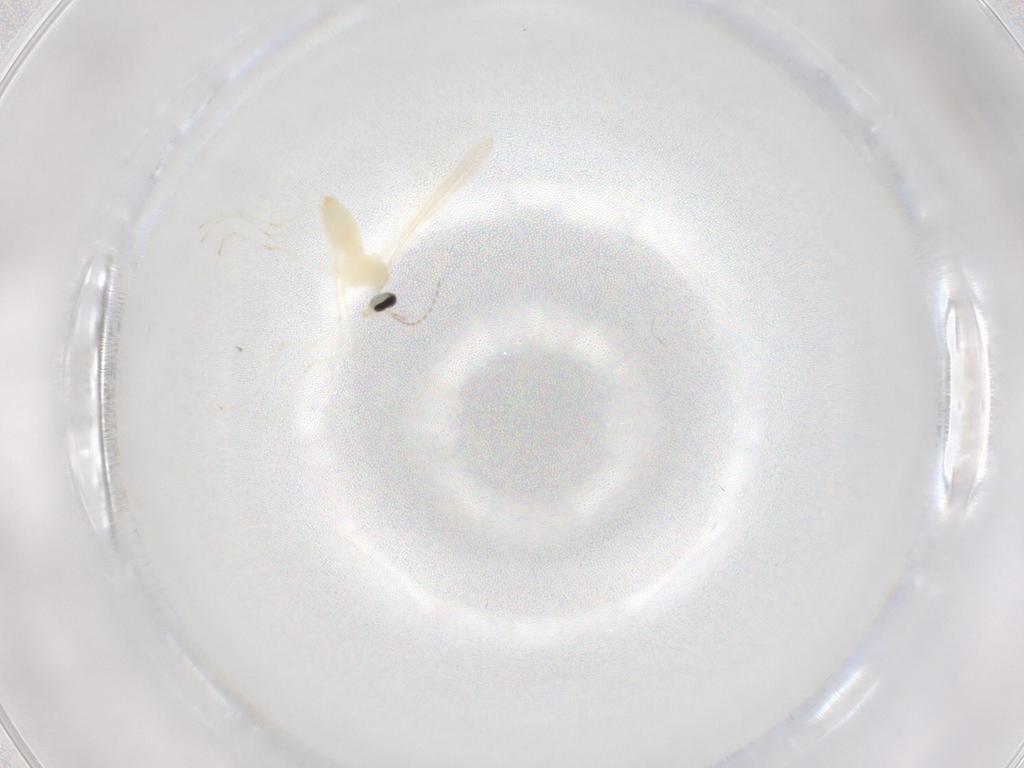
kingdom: Animalia
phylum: Arthropoda
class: Insecta
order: Diptera
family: Cecidomyiidae
